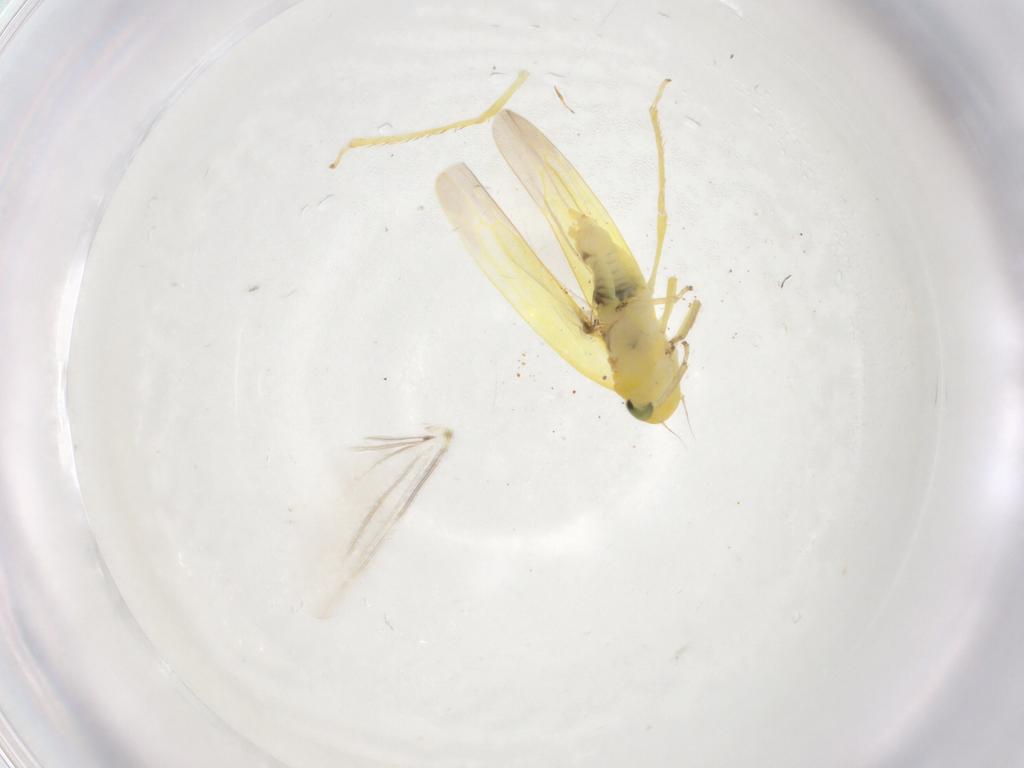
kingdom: Animalia
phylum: Arthropoda
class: Insecta
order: Hemiptera
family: Cicadellidae
